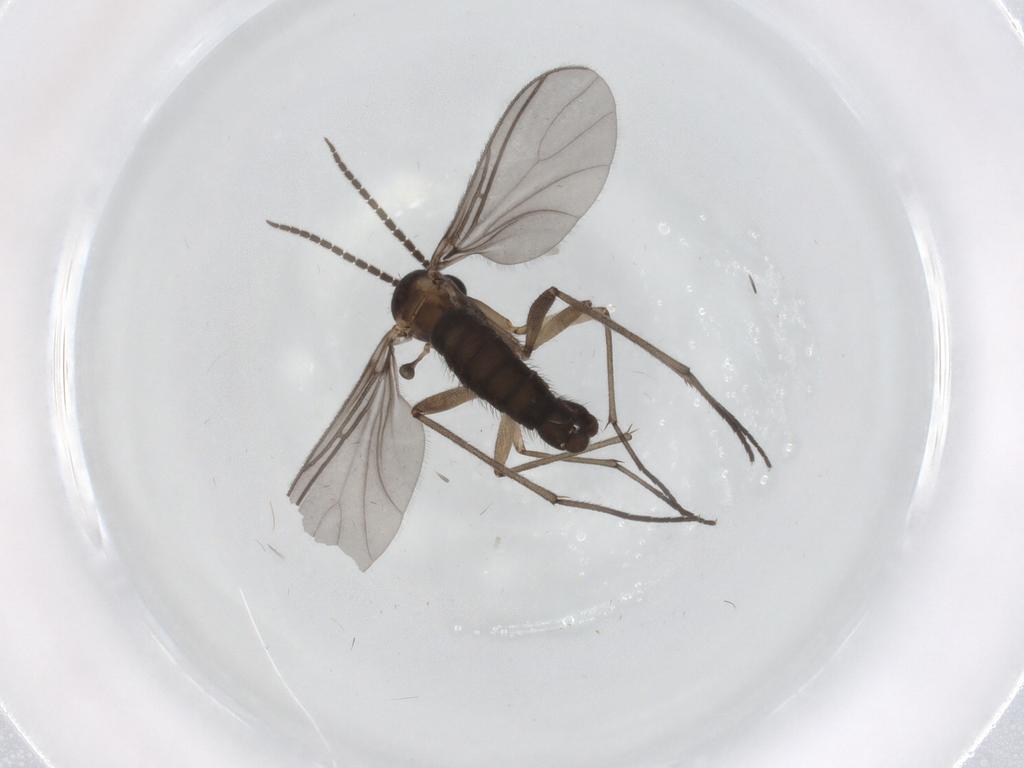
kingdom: Animalia
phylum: Arthropoda
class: Insecta
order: Diptera
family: Sciaridae
